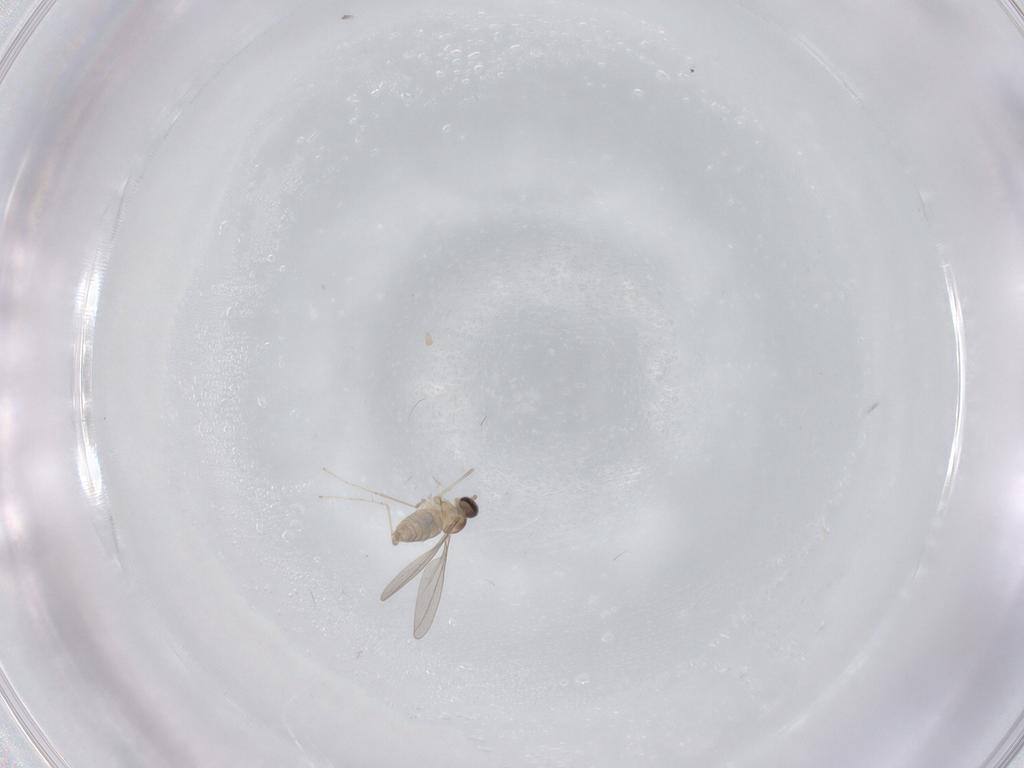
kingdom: Animalia
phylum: Arthropoda
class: Insecta
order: Diptera
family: Cecidomyiidae
